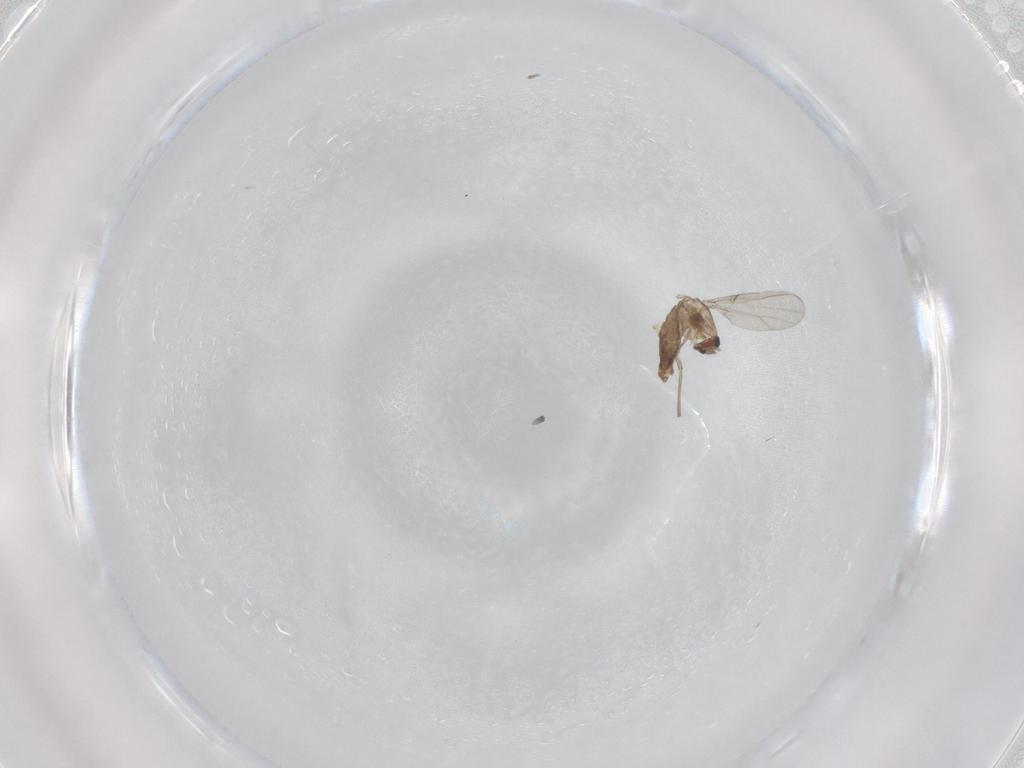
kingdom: Animalia
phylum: Arthropoda
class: Insecta
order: Diptera
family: Chironomidae
